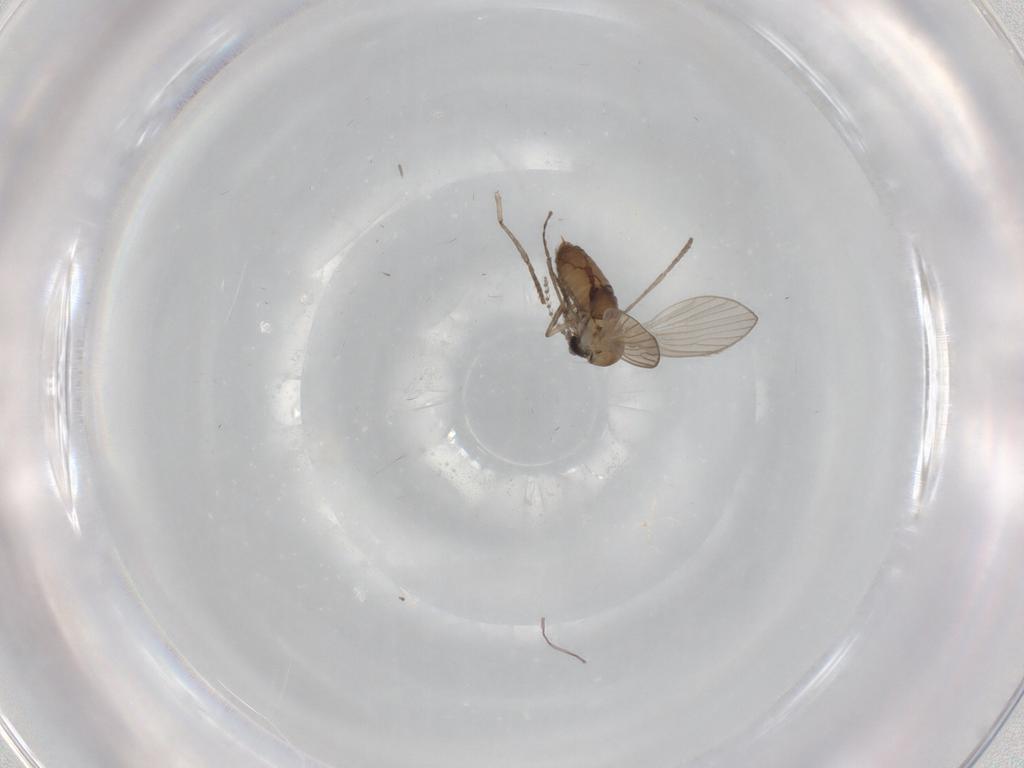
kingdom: Animalia
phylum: Arthropoda
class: Insecta
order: Diptera
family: Psychodidae
